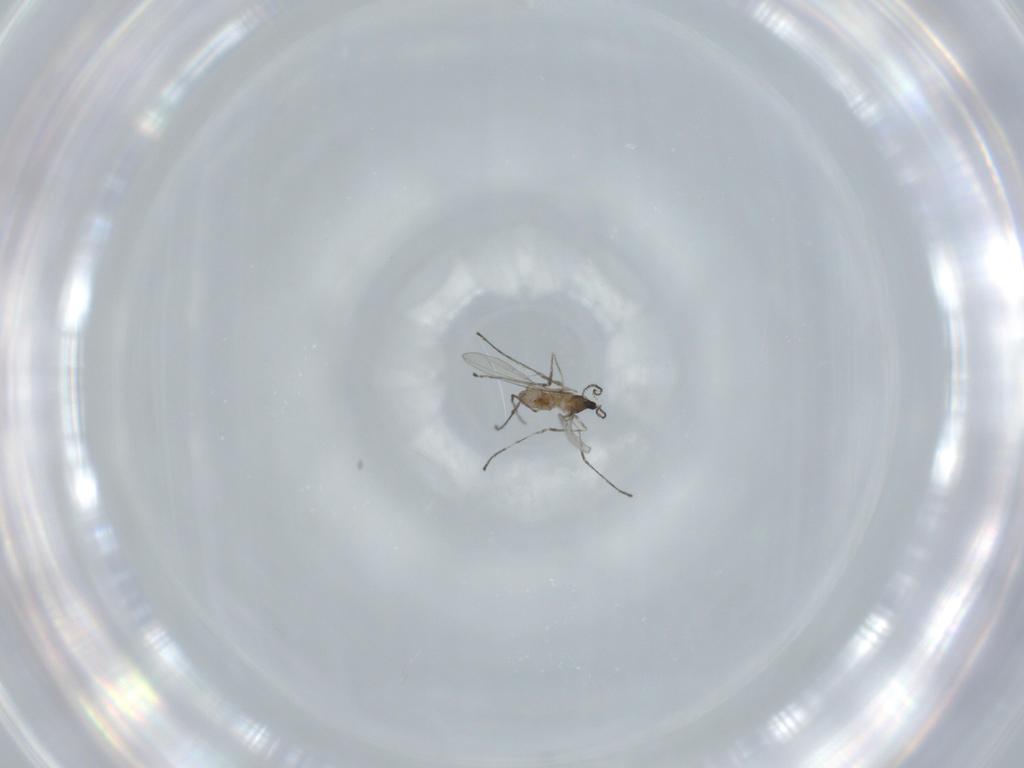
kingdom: Animalia
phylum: Arthropoda
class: Insecta
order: Diptera
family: Cecidomyiidae
